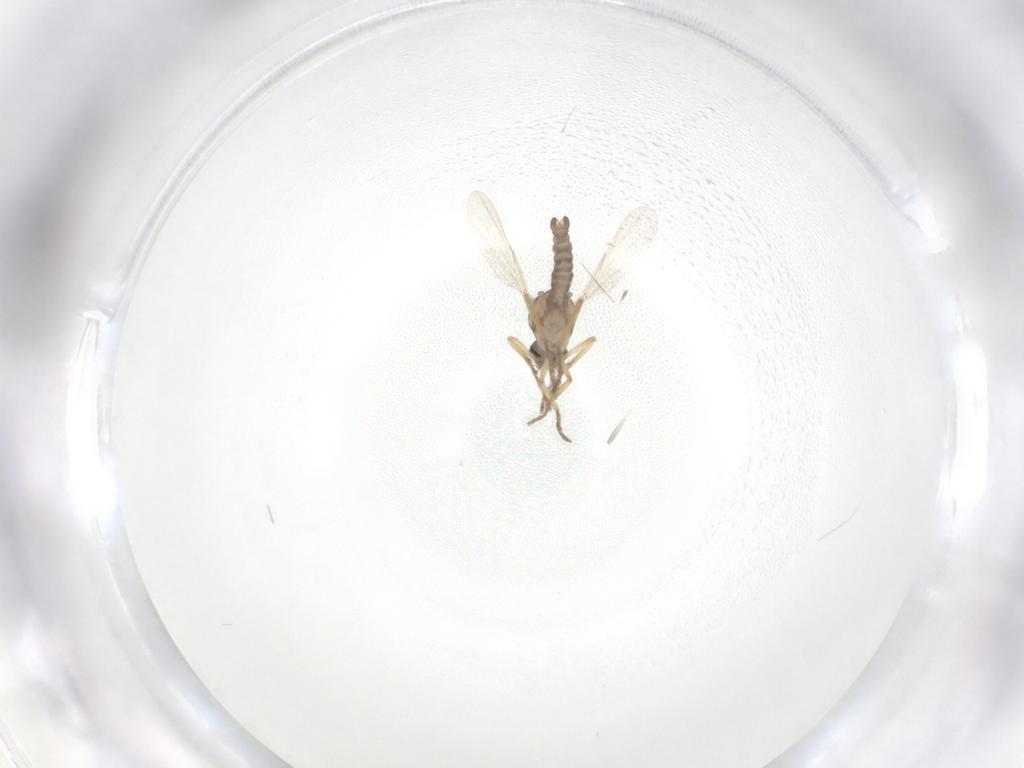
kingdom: Animalia
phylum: Arthropoda
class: Insecta
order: Diptera
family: Ceratopogonidae
